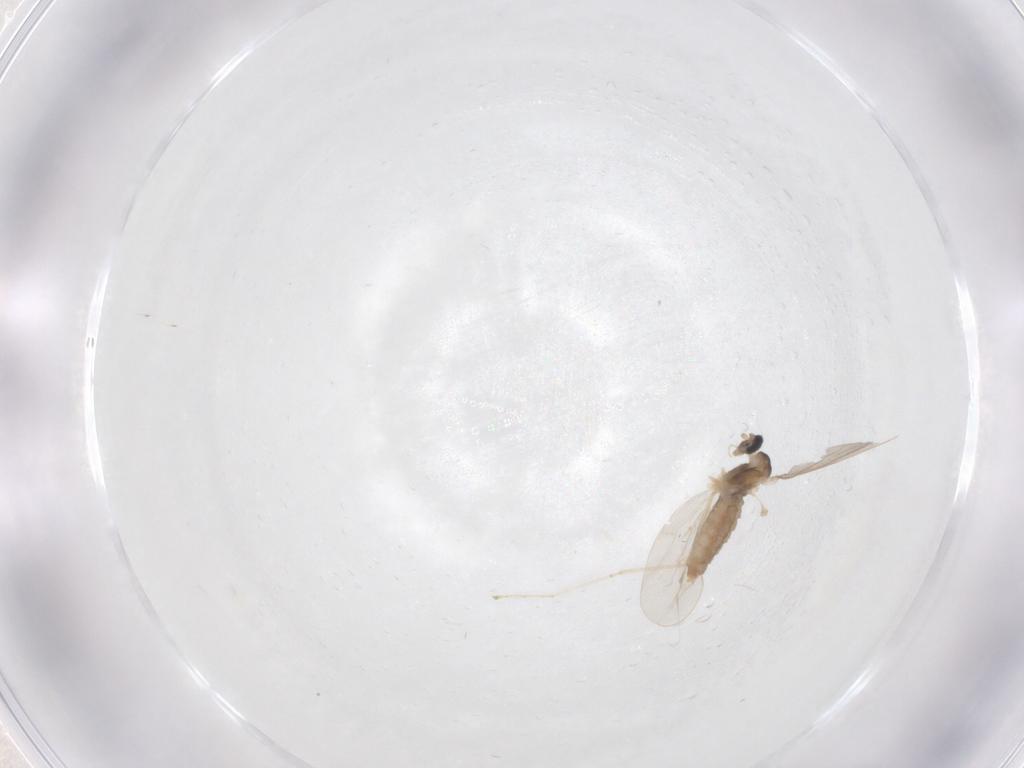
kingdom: Animalia
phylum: Arthropoda
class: Insecta
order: Diptera
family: Cecidomyiidae
